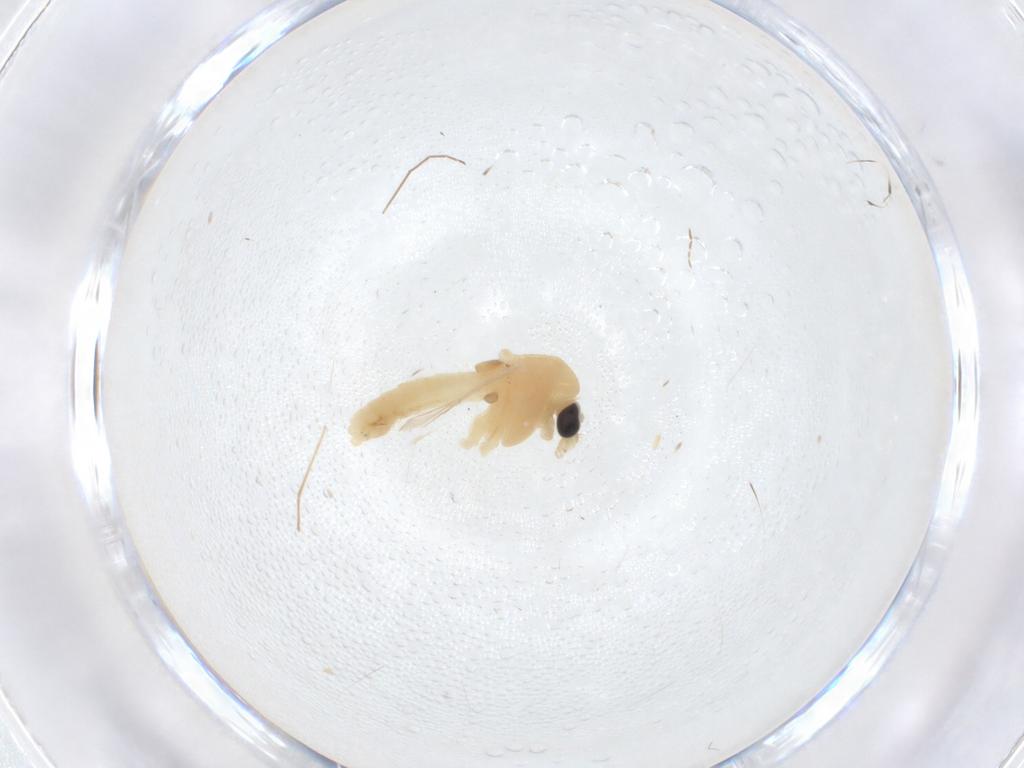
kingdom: Animalia
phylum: Arthropoda
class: Insecta
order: Diptera
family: Chironomidae
